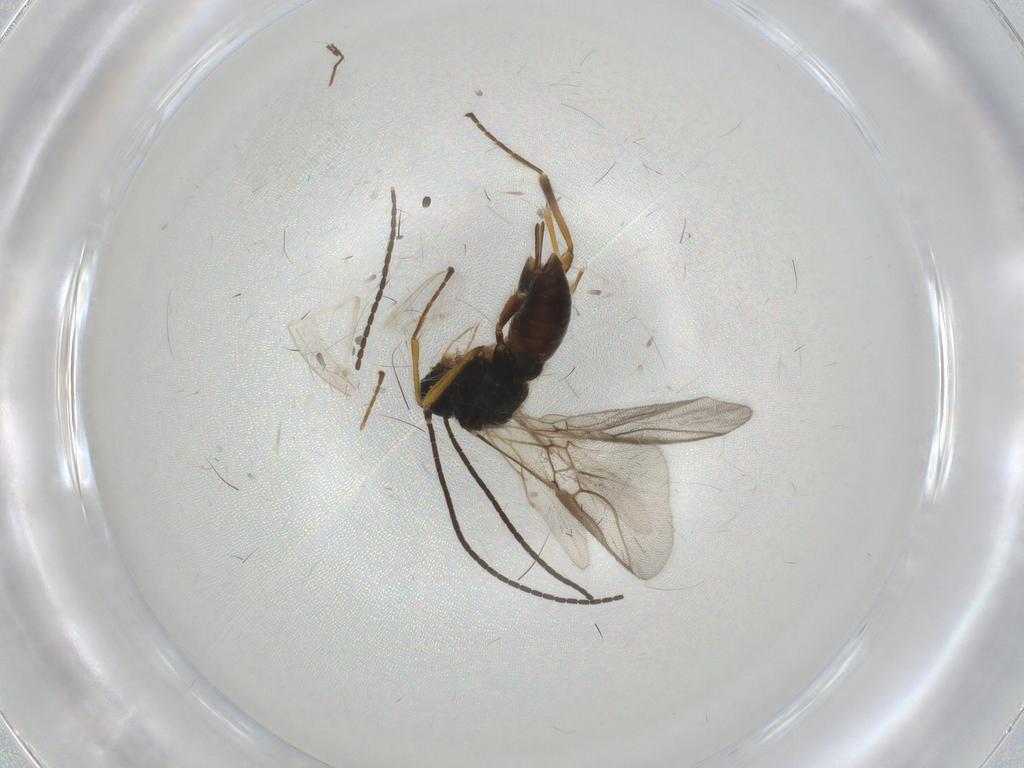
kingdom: Animalia
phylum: Arthropoda
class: Insecta
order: Hymenoptera
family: Braconidae
